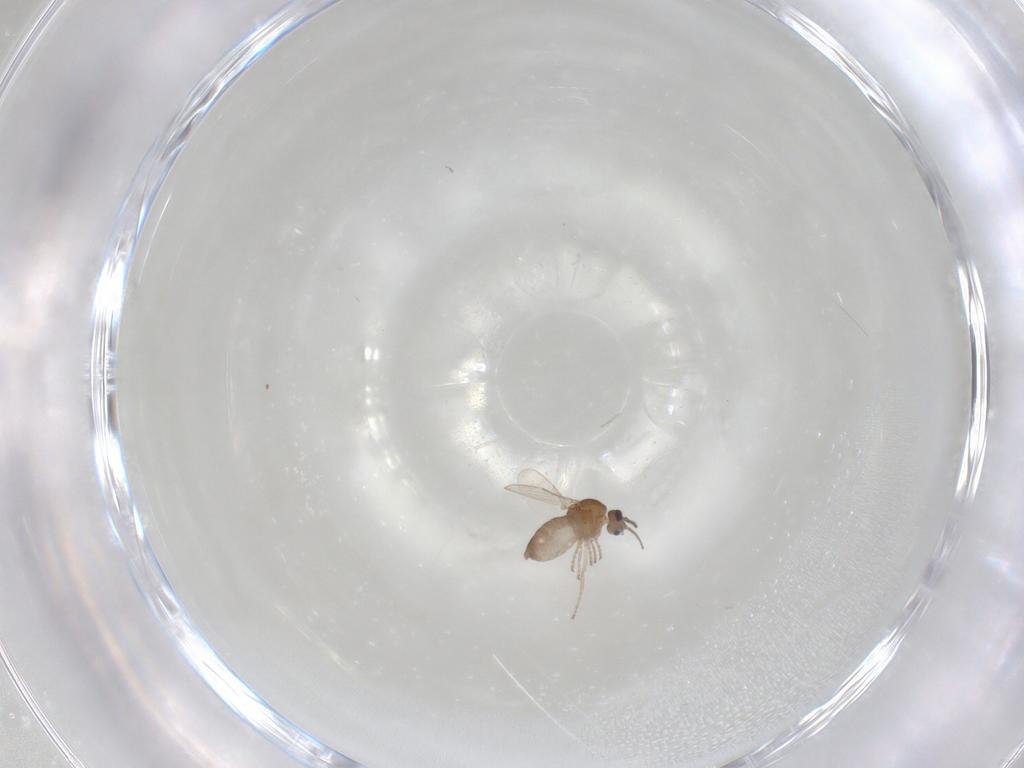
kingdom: Animalia
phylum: Arthropoda
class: Insecta
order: Diptera
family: Ceratopogonidae
